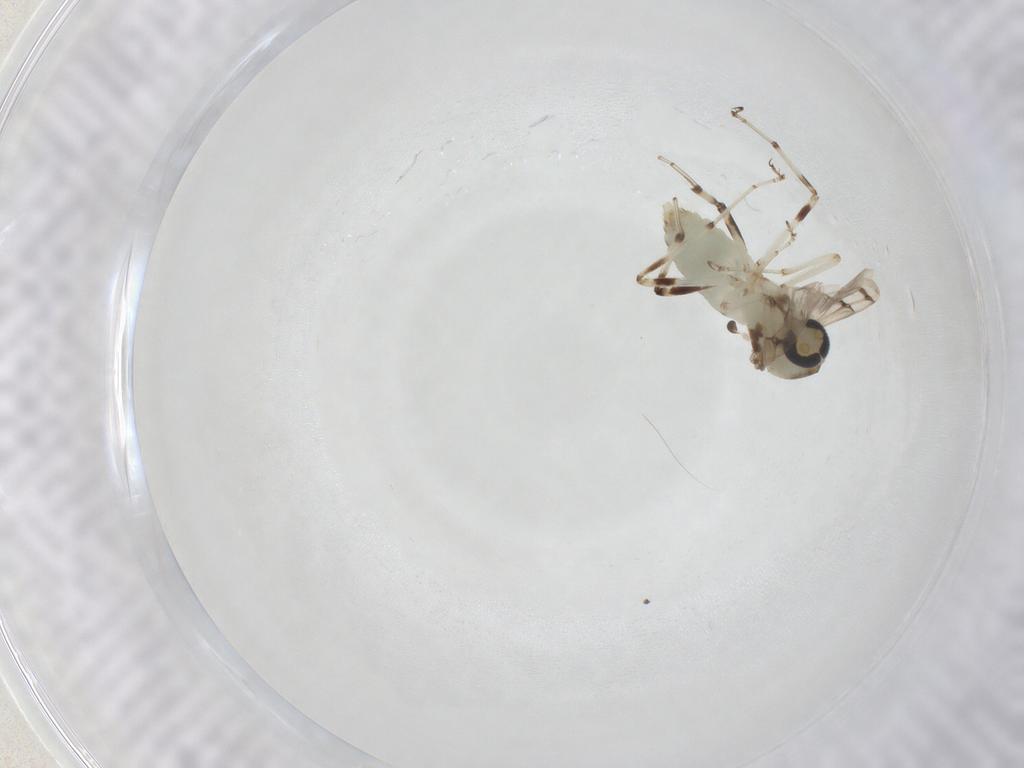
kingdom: Animalia
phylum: Arthropoda
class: Insecta
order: Diptera
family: Ceratopogonidae
